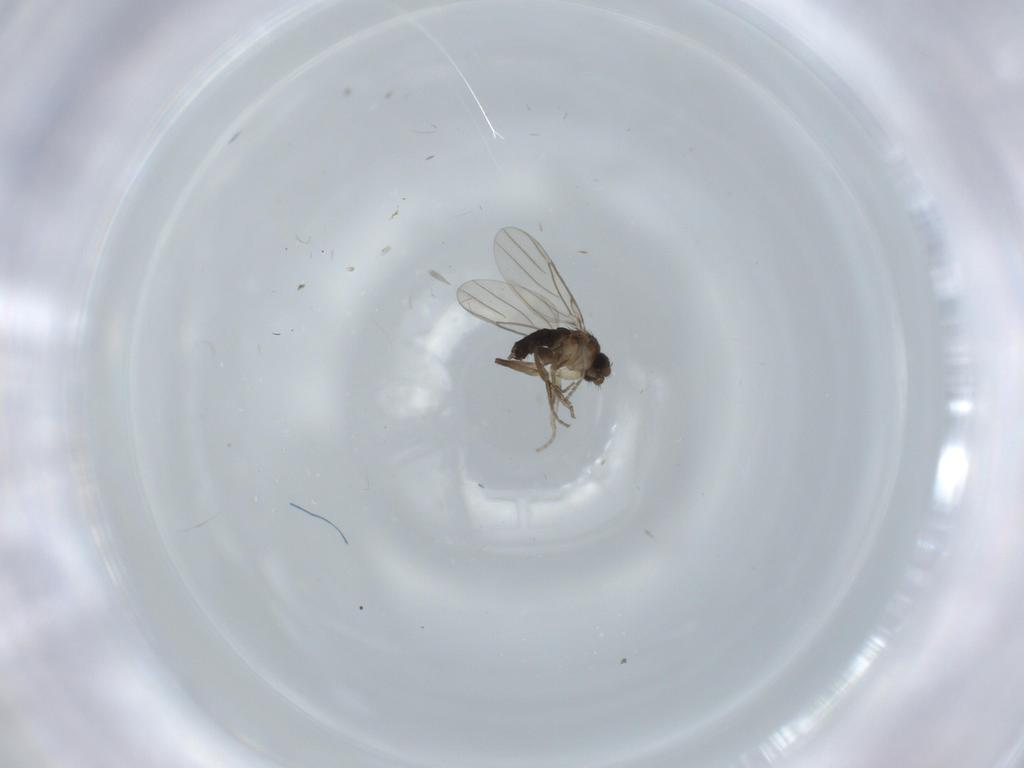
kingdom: Animalia
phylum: Arthropoda
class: Insecta
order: Diptera
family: Phoridae
